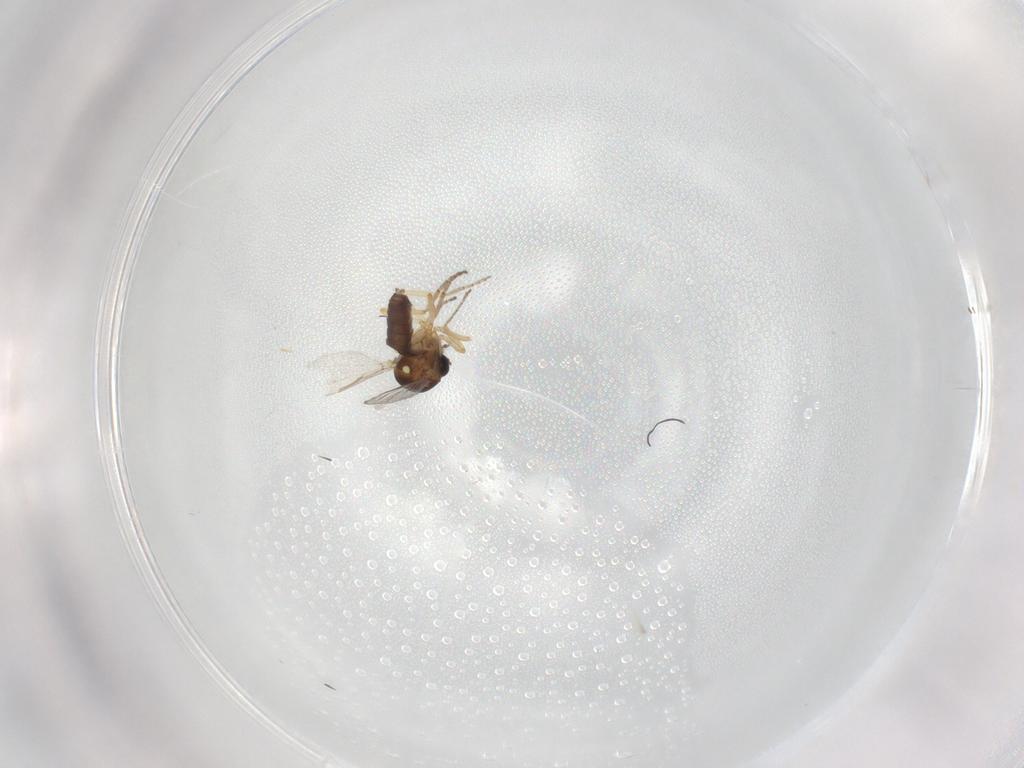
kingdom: Animalia
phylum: Arthropoda
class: Insecta
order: Diptera
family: Ceratopogonidae
